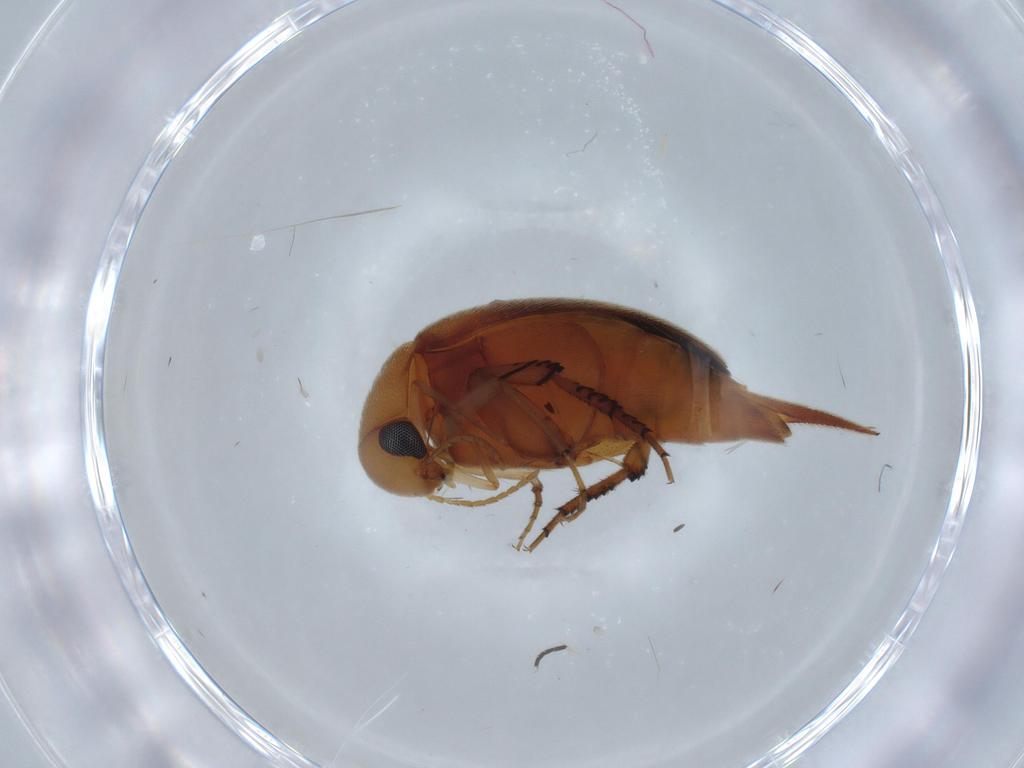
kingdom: Animalia
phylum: Arthropoda
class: Insecta
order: Coleoptera
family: Mordellidae
